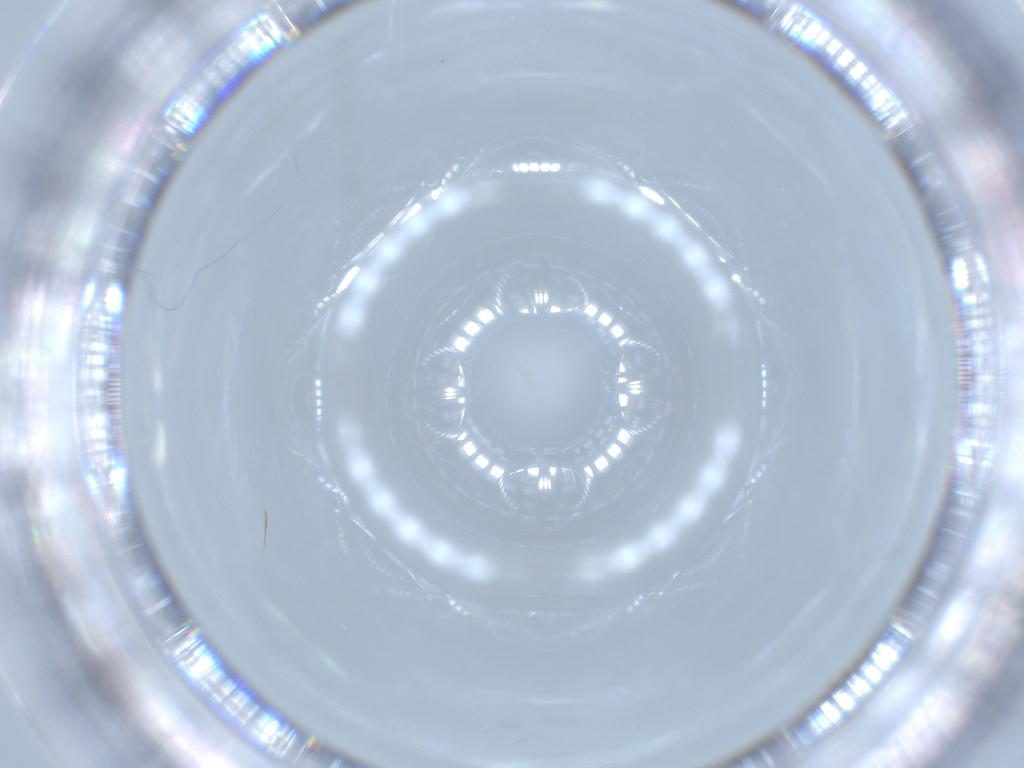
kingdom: Animalia
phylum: Arthropoda
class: Insecta
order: Diptera
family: Cecidomyiidae
